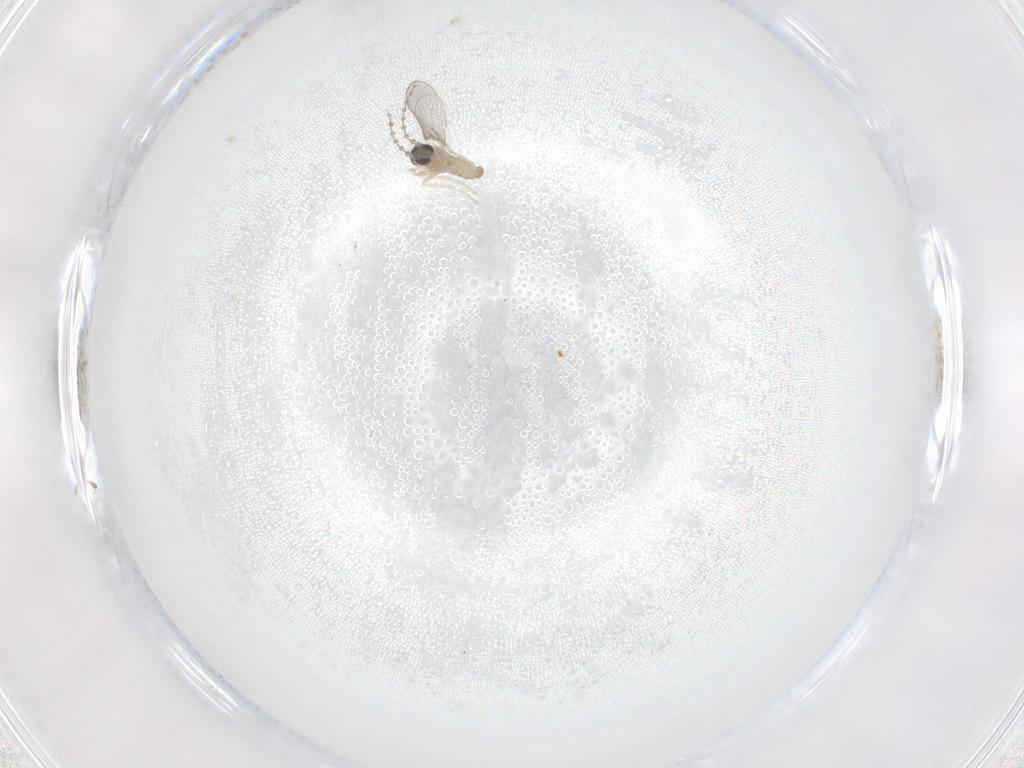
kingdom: Animalia
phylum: Arthropoda
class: Insecta
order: Diptera
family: Cecidomyiidae
